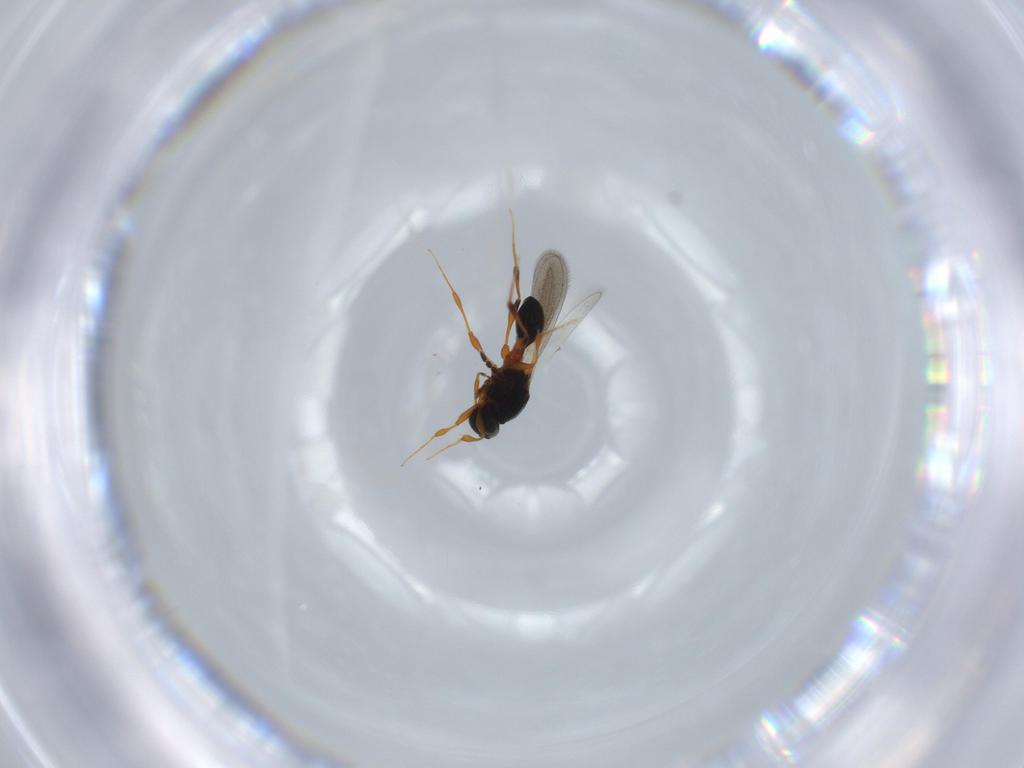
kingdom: Animalia
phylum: Arthropoda
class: Insecta
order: Hymenoptera
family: Platygastridae
